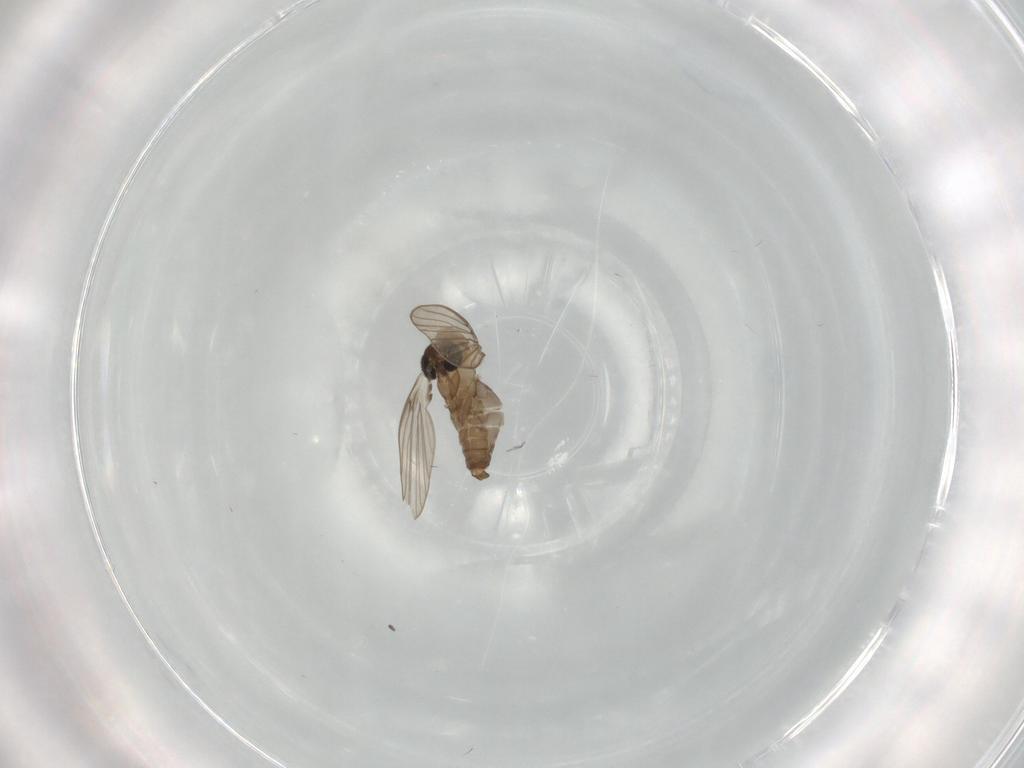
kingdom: Animalia
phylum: Arthropoda
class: Insecta
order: Diptera
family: Psychodidae
